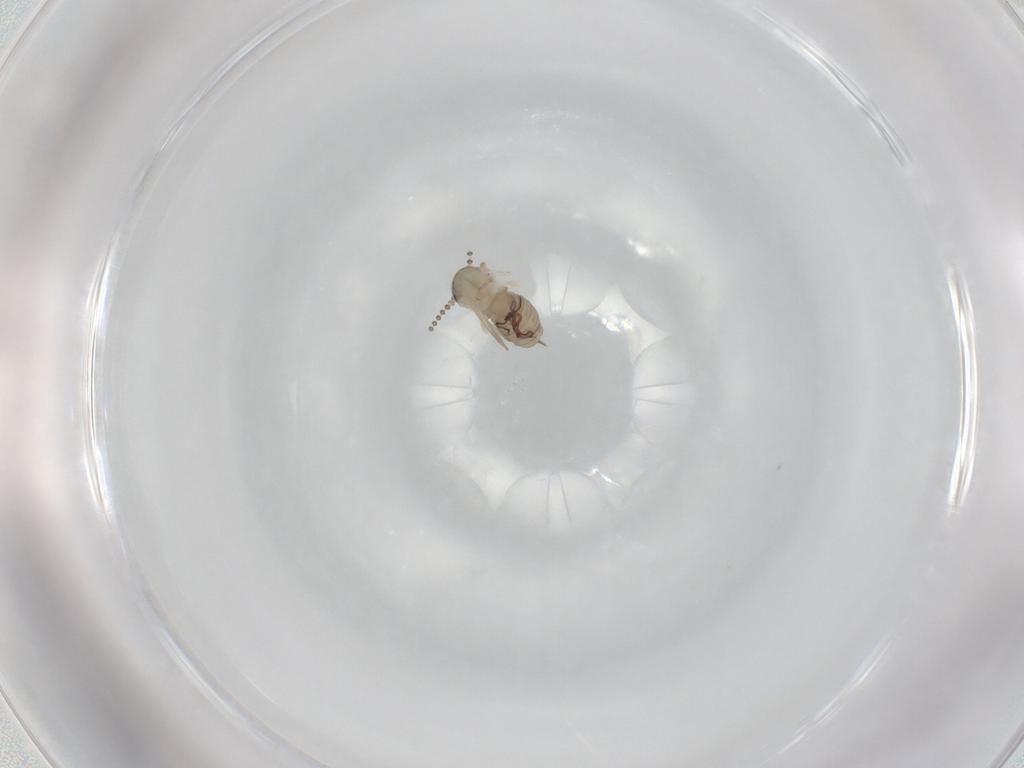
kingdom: Animalia
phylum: Arthropoda
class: Insecta
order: Diptera
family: Psychodidae
